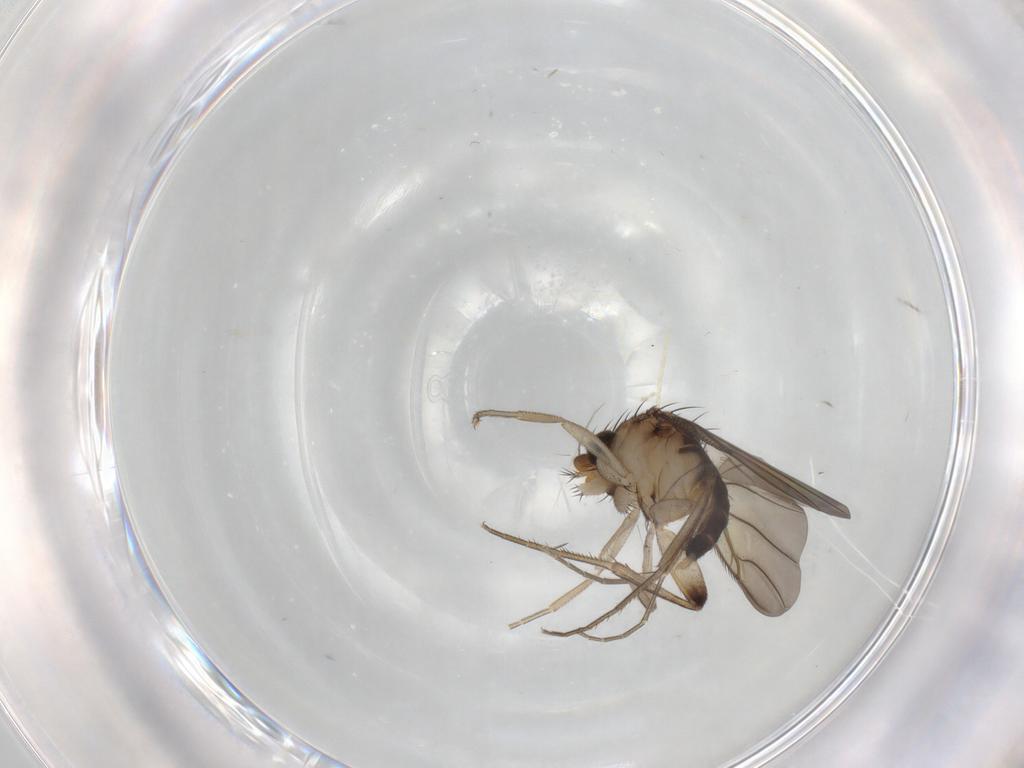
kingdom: Animalia
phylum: Arthropoda
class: Insecta
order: Diptera
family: Phoridae
